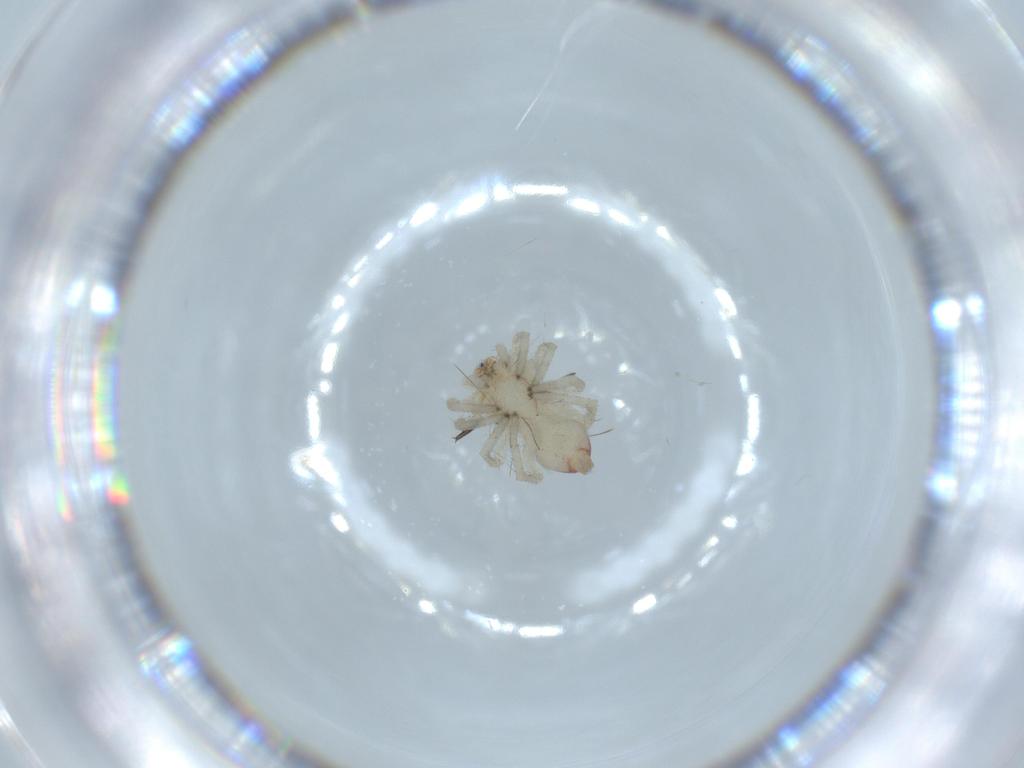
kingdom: Animalia
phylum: Arthropoda
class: Arachnida
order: Araneae
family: Clubionidae
